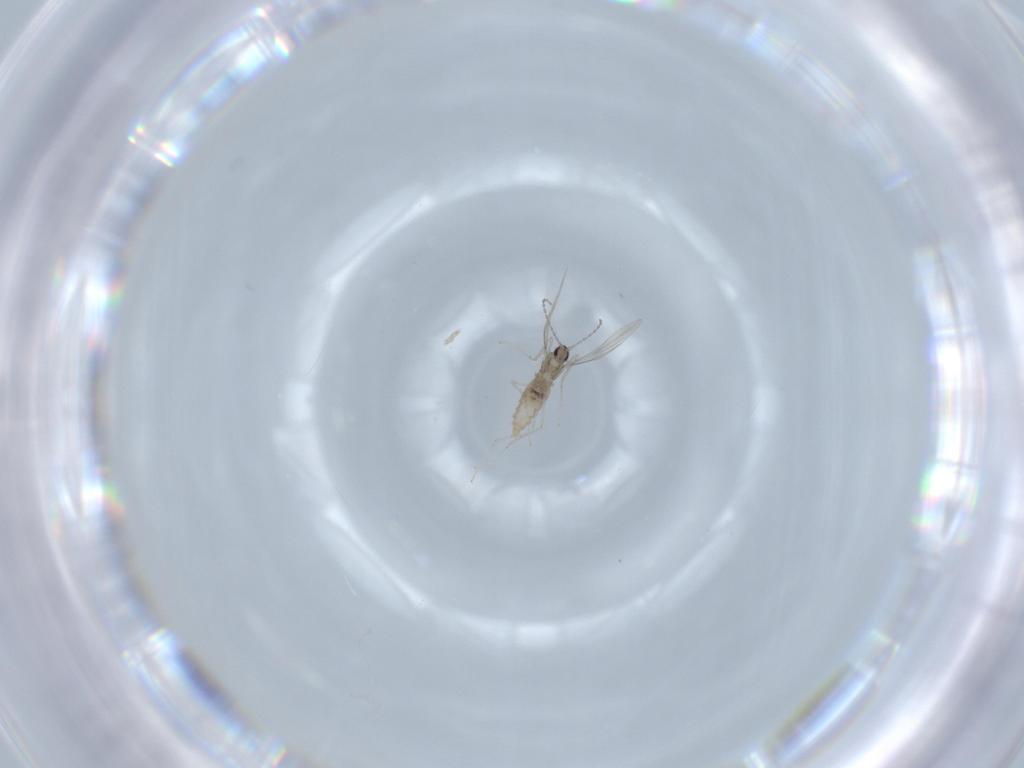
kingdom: Animalia
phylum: Arthropoda
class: Insecta
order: Diptera
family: Cecidomyiidae
